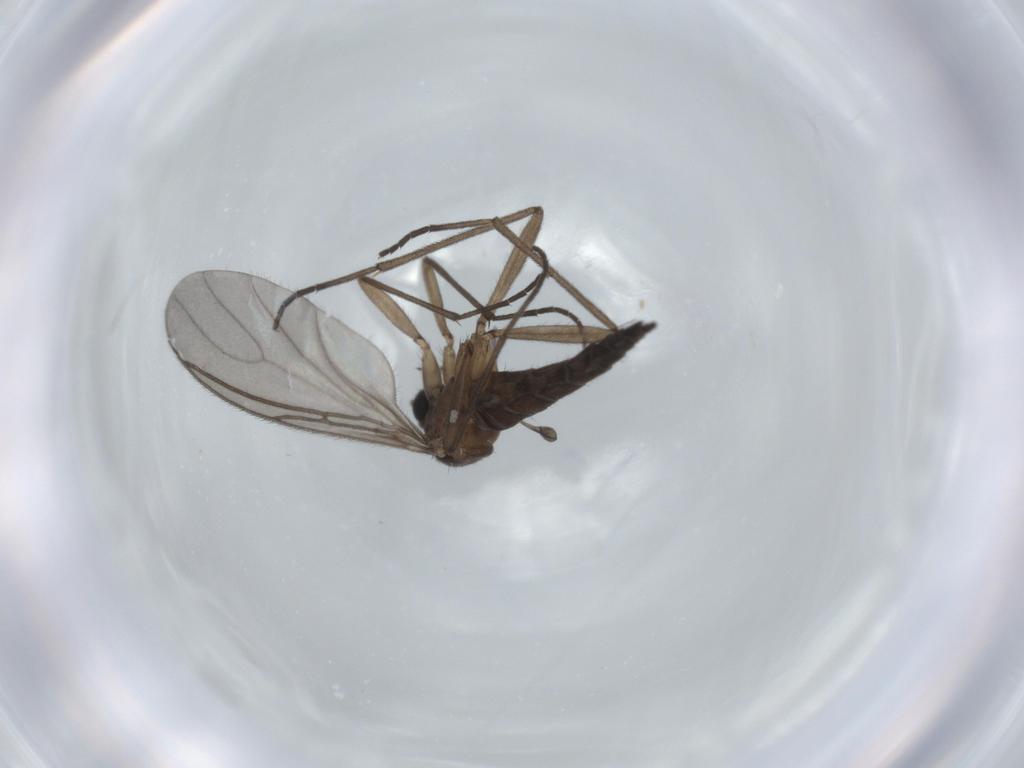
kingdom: Animalia
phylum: Arthropoda
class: Insecta
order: Diptera
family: Sciaridae
